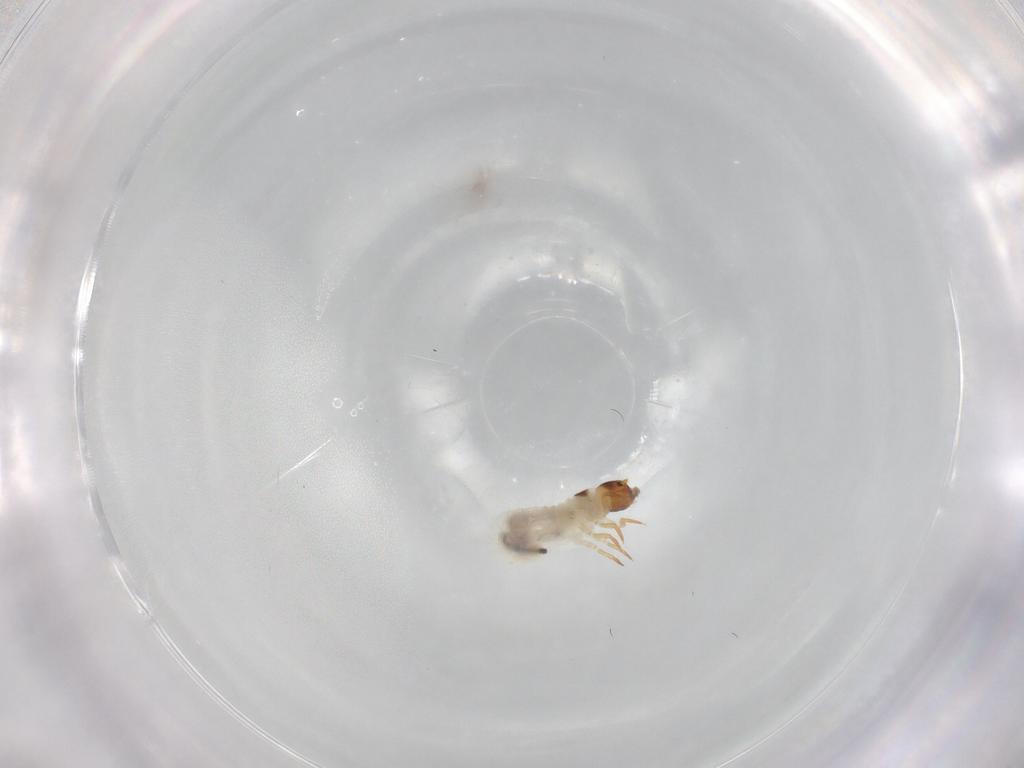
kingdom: Animalia
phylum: Arthropoda
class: Insecta
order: Coleoptera
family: Chrysomelidae
